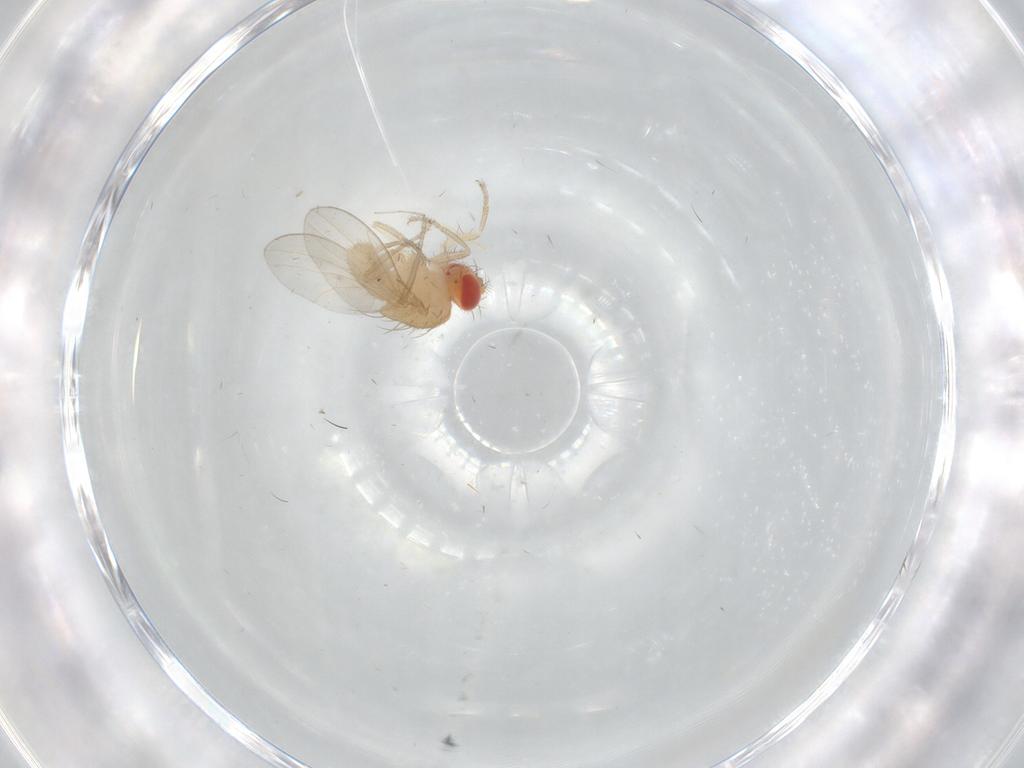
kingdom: Animalia
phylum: Arthropoda
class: Insecta
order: Diptera
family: Drosophilidae
